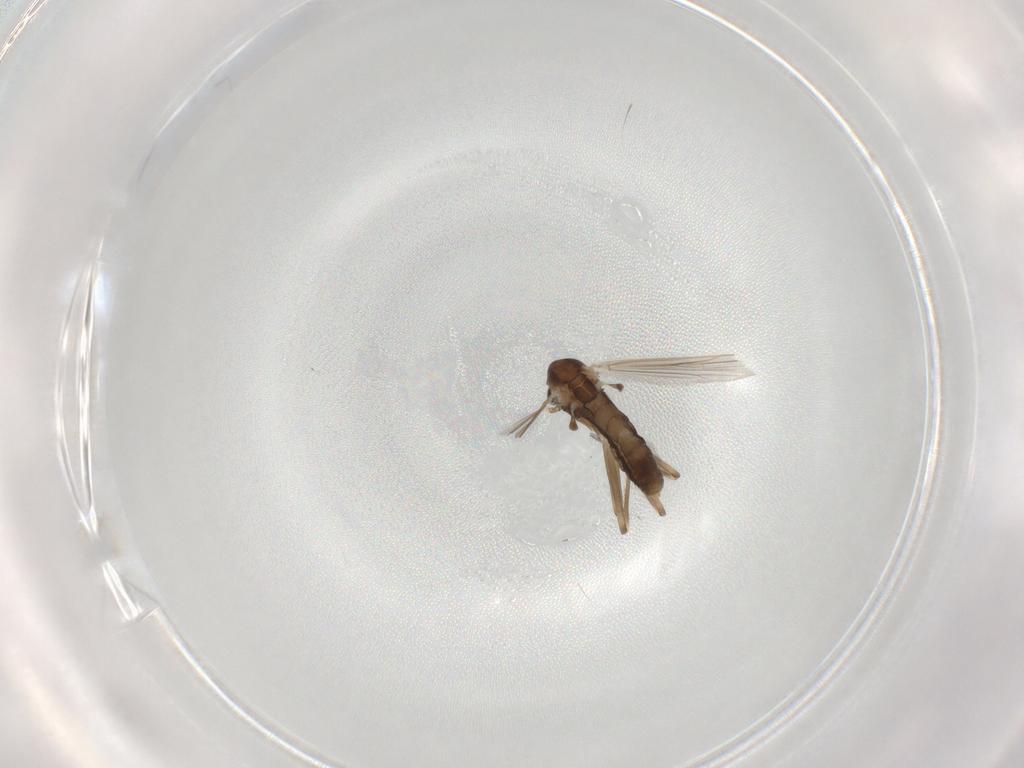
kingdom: Animalia
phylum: Arthropoda
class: Insecta
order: Diptera
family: Chironomidae
